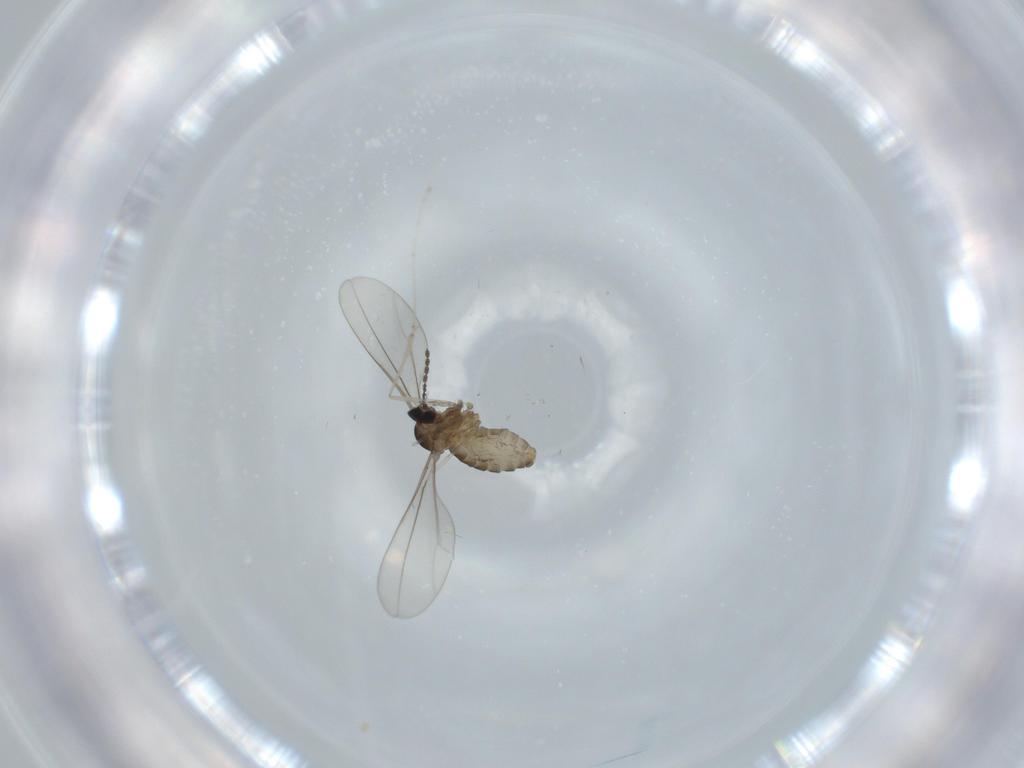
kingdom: Animalia
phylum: Arthropoda
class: Insecta
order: Diptera
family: Cecidomyiidae
